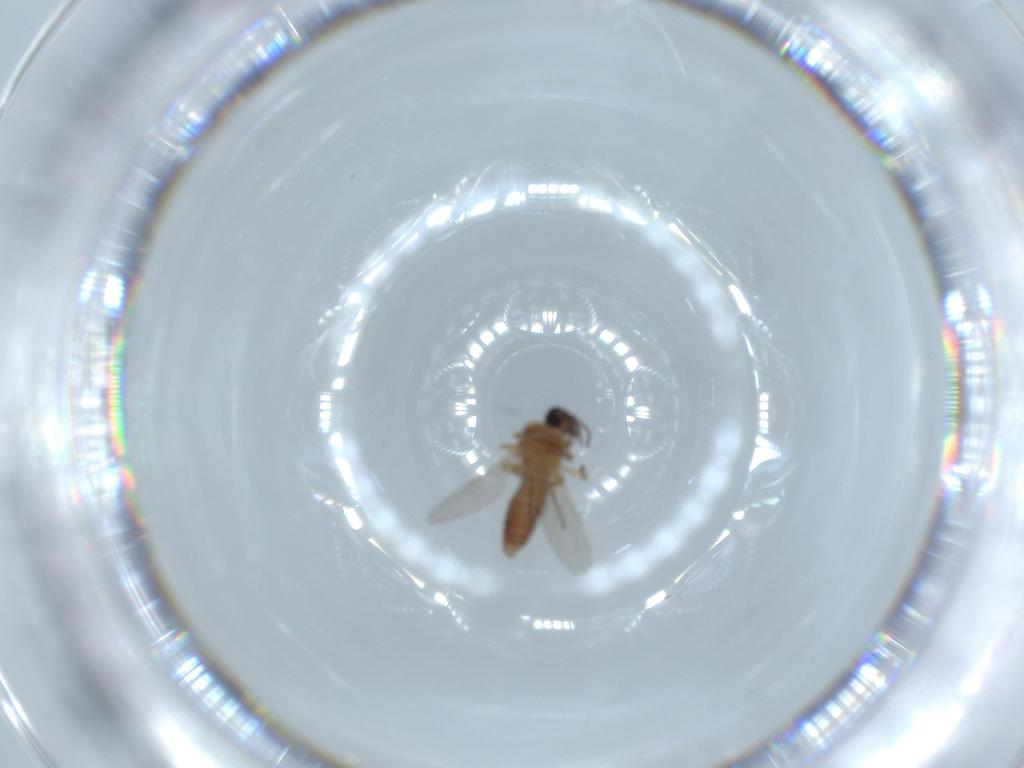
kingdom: Animalia
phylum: Arthropoda
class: Insecta
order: Diptera
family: Ceratopogonidae
